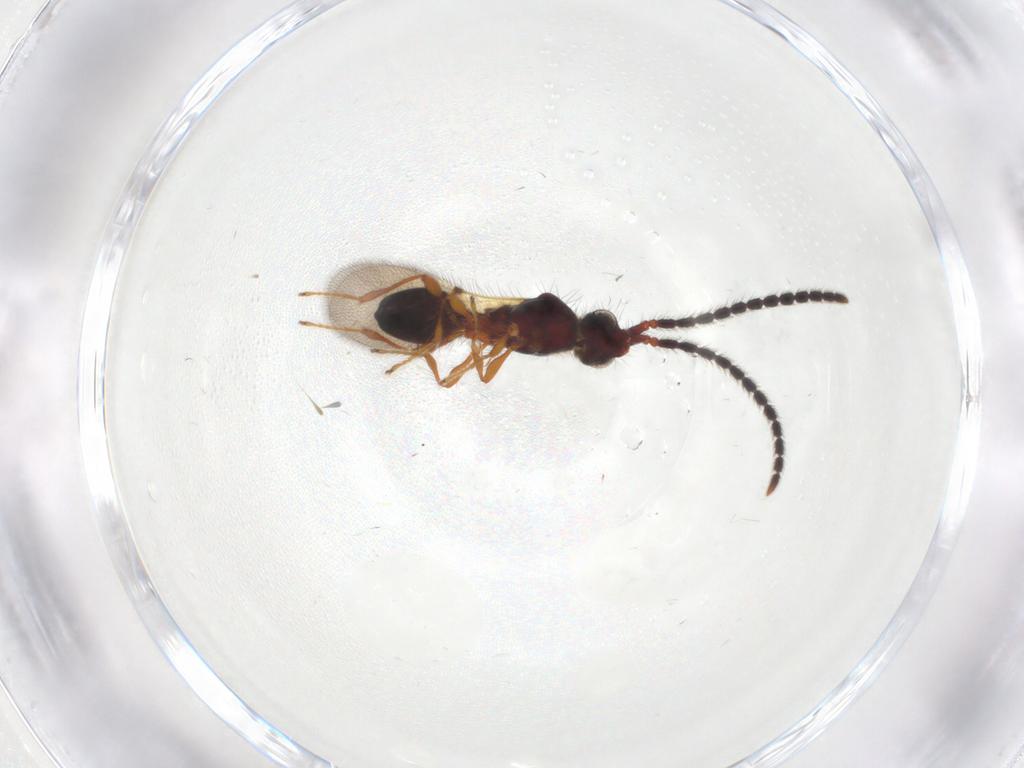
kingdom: Animalia
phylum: Arthropoda
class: Insecta
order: Hymenoptera
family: Diapriidae
